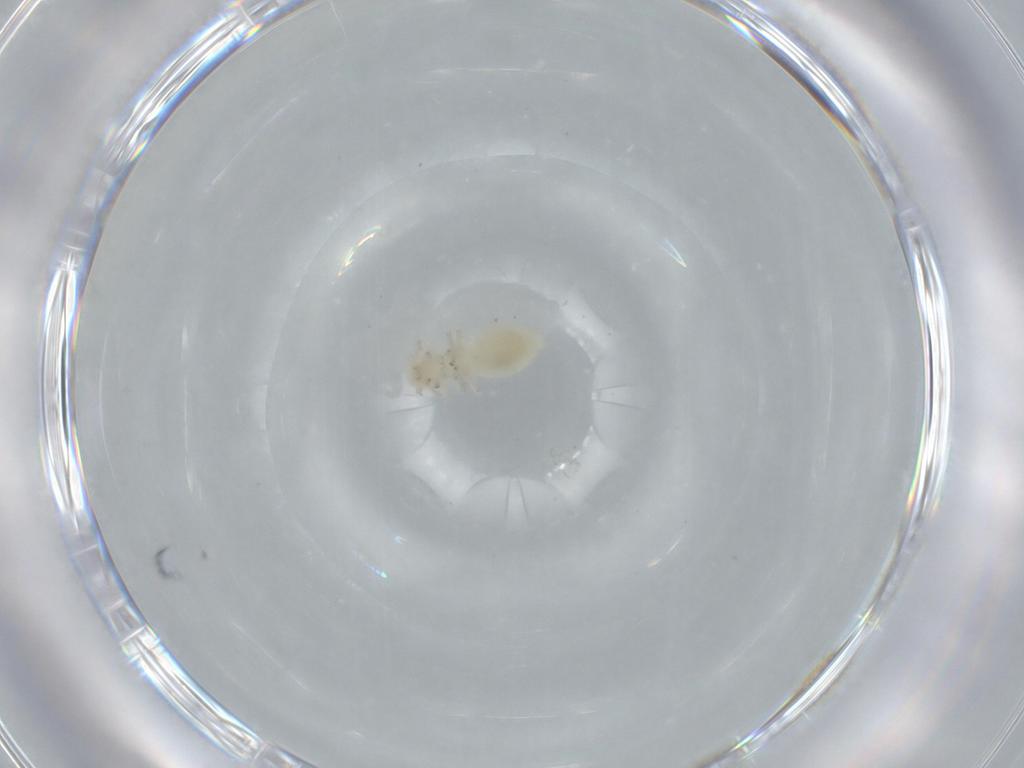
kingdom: Animalia
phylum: Arthropoda
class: Insecta
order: Psocodea
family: Caeciliusidae
